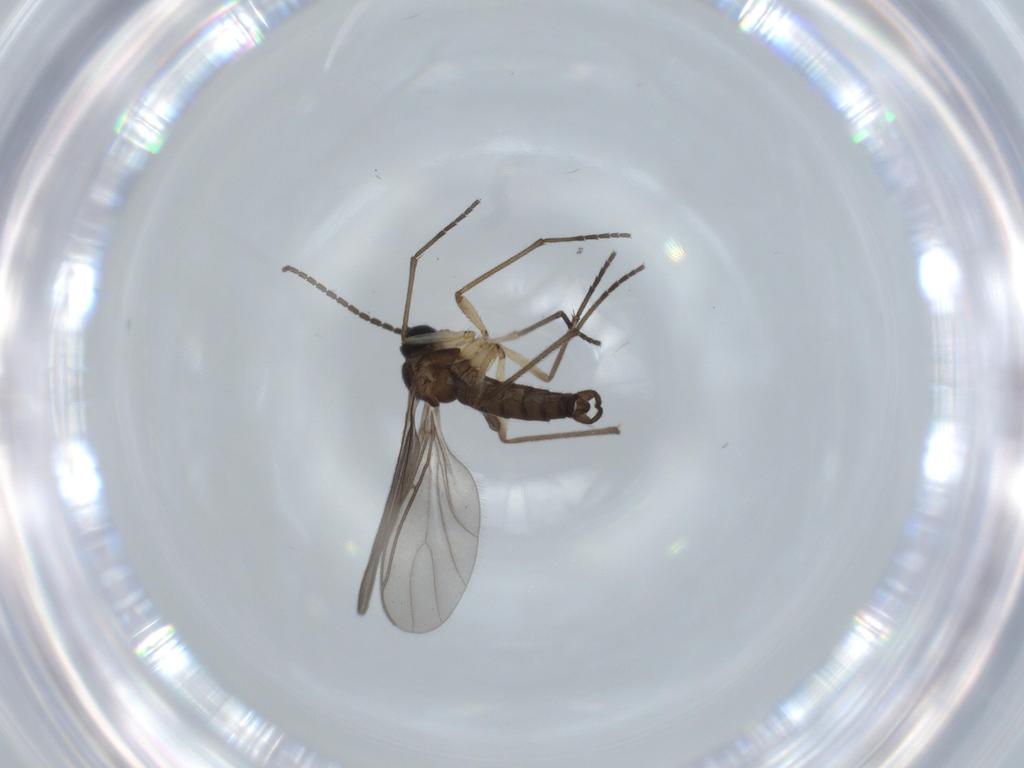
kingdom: Animalia
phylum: Arthropoda
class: Insecta
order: Diptera
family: Sciaridae
